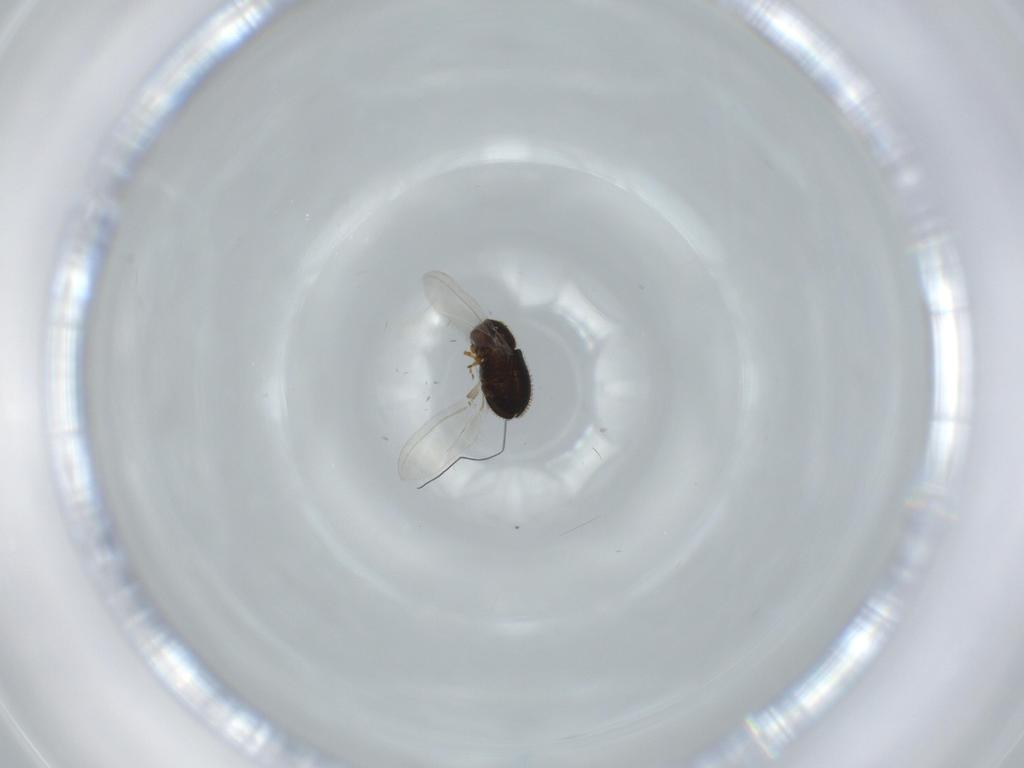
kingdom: Animalia
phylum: Arthropoda
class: Insecta
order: Coleoptera
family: Curculionidae
